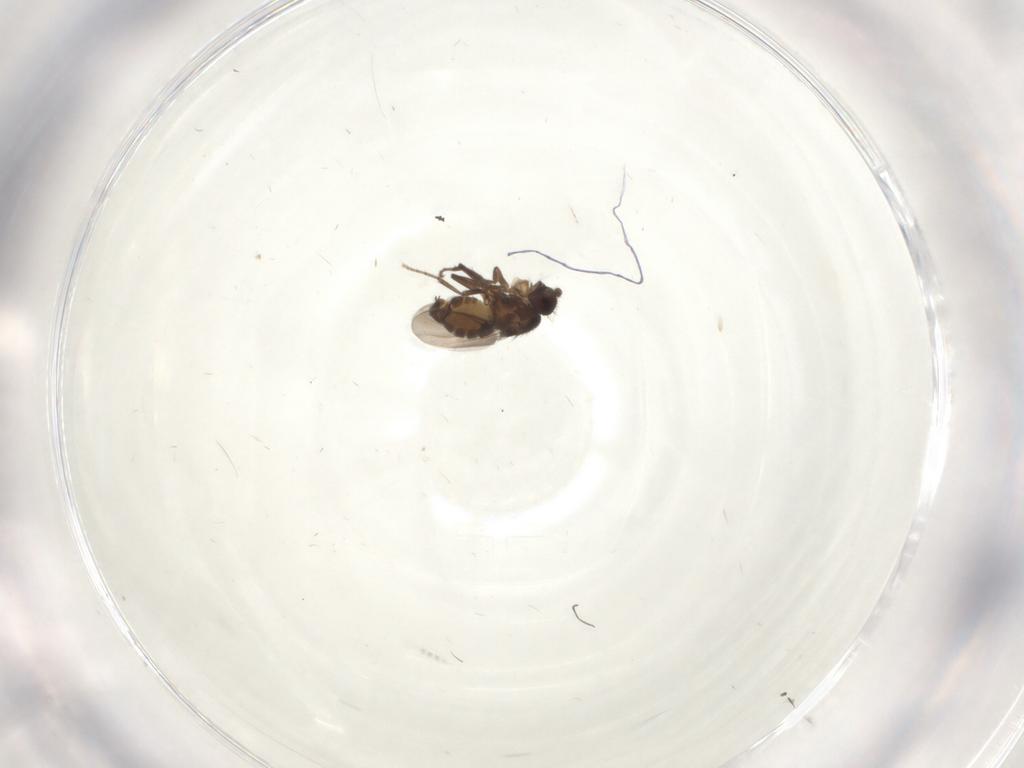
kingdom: Animalia
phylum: Arthropoda
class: Insecta
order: Diptera
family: Sphaeroceridae
